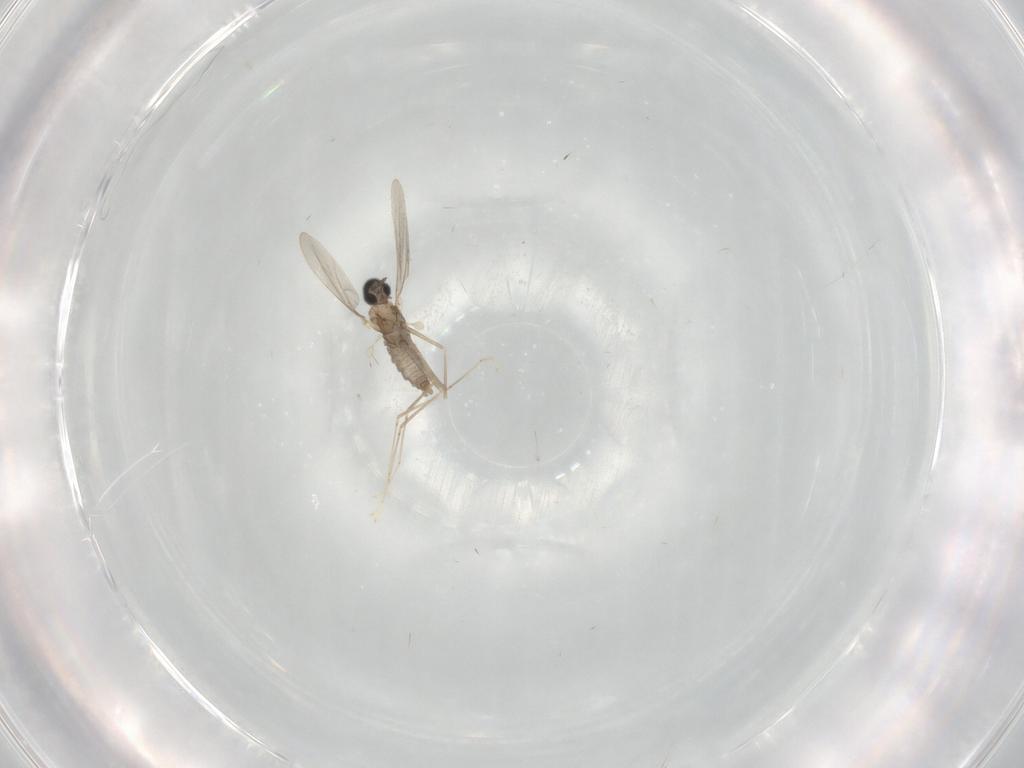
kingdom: Animalia
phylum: Arthropoda
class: Insecta
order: Diptera
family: Cecidomyiidae
